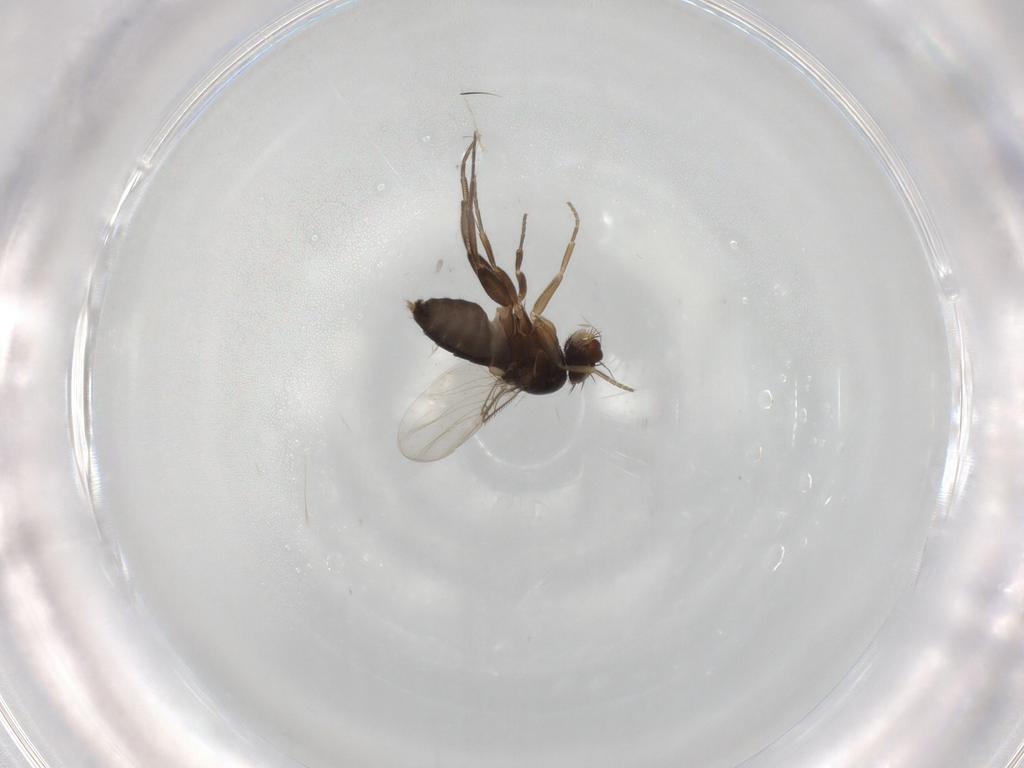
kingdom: Animalia
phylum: Arthropoda
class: Insecta
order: Diptera
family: Phoridae
